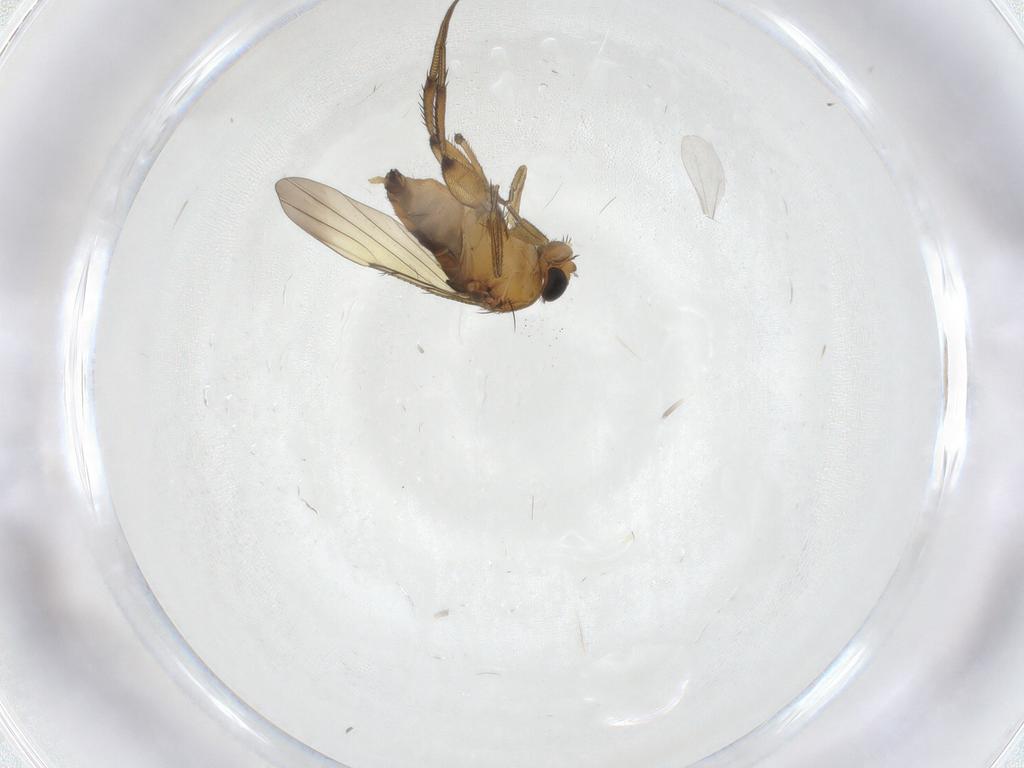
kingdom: Animalia
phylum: Arthropoda
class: Insecta
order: Diptera
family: Phoridae
